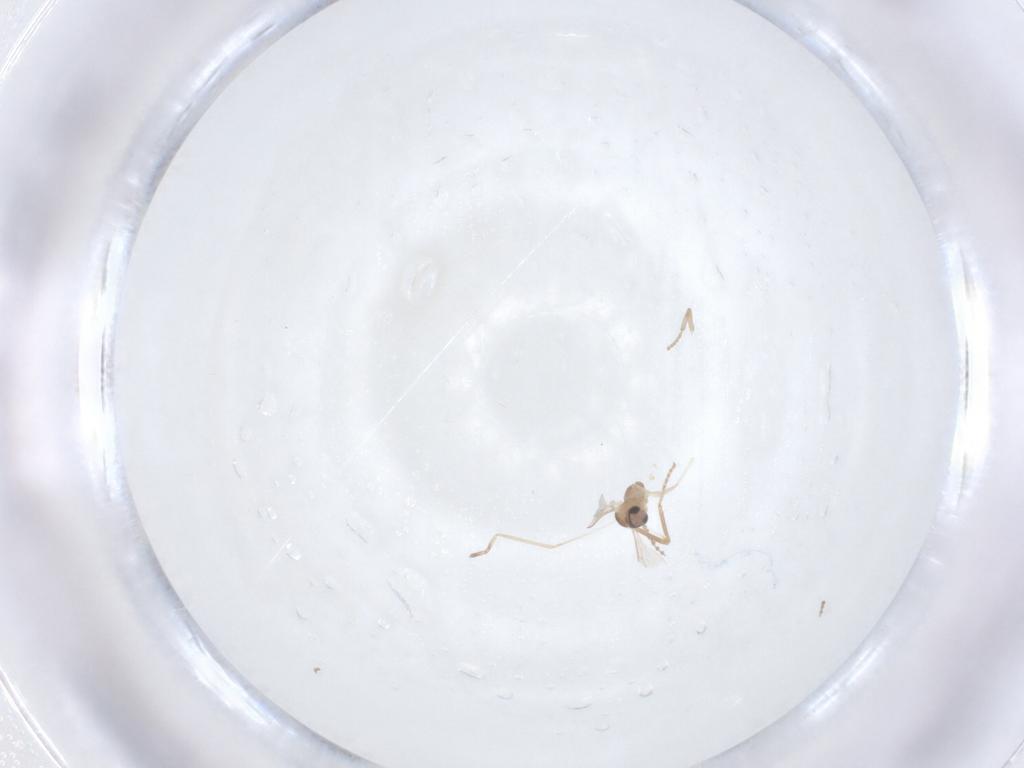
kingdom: Animalia
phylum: Arthropoda
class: Insecta
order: Diptera
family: Cecidomyiidae
